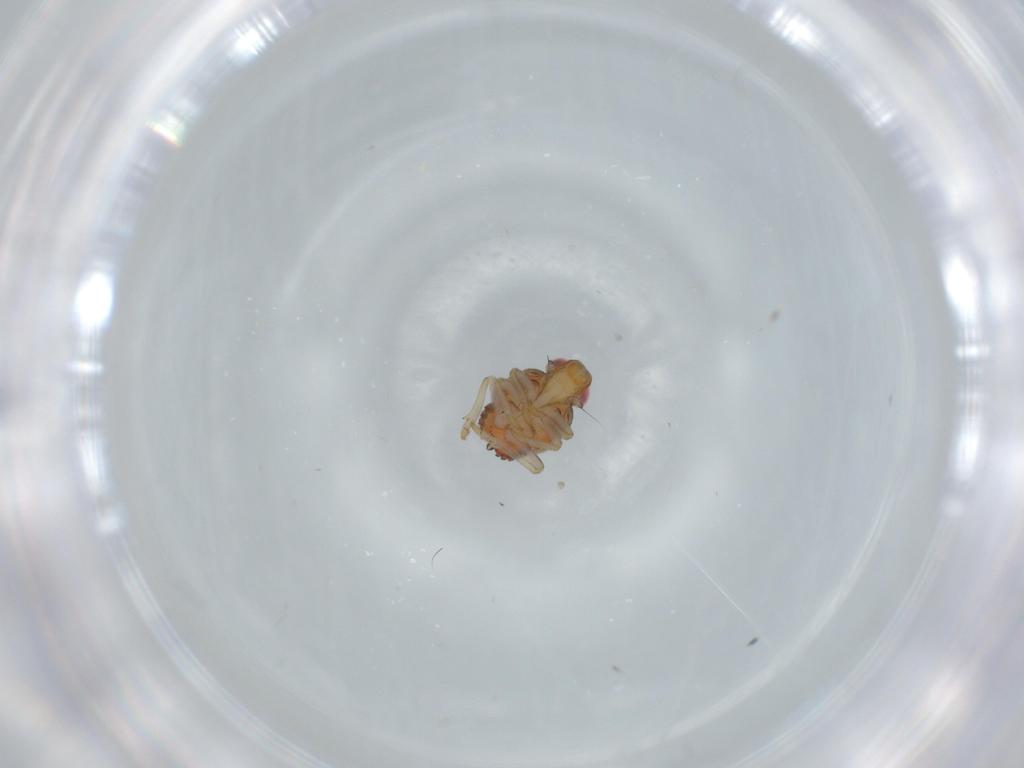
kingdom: Animalia
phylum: Arthropoda
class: Insecta
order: Hemiptera
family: Issidae
